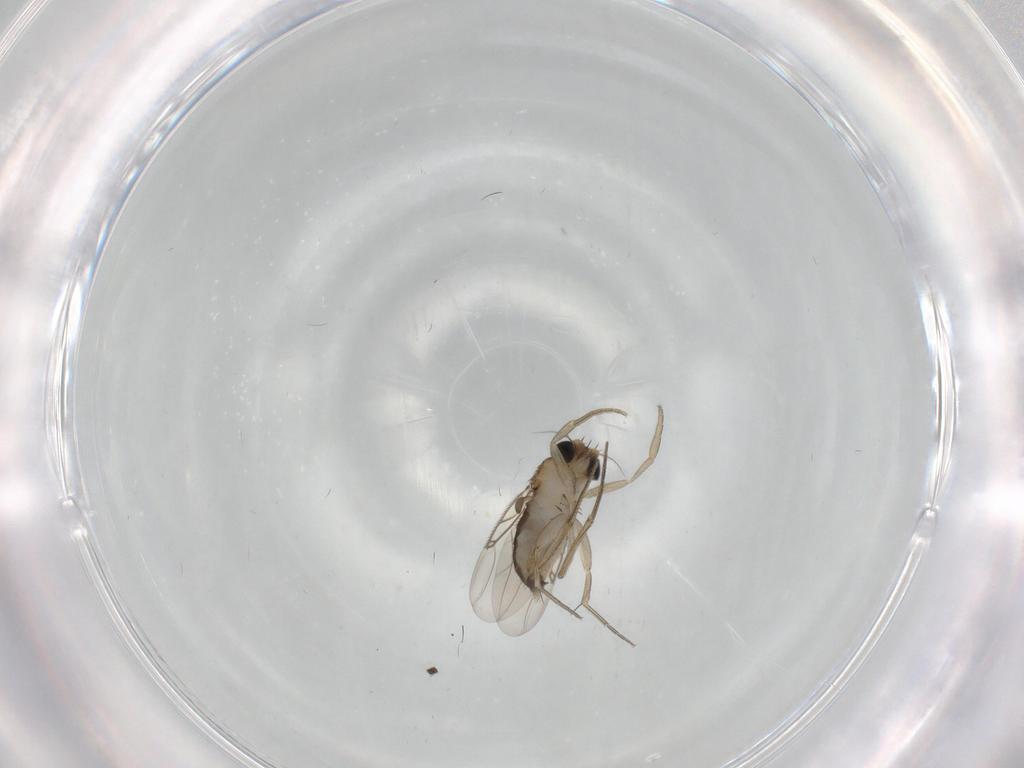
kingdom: Animalia
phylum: Arthropoda
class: Insecta
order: Diptera
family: Phoridae
